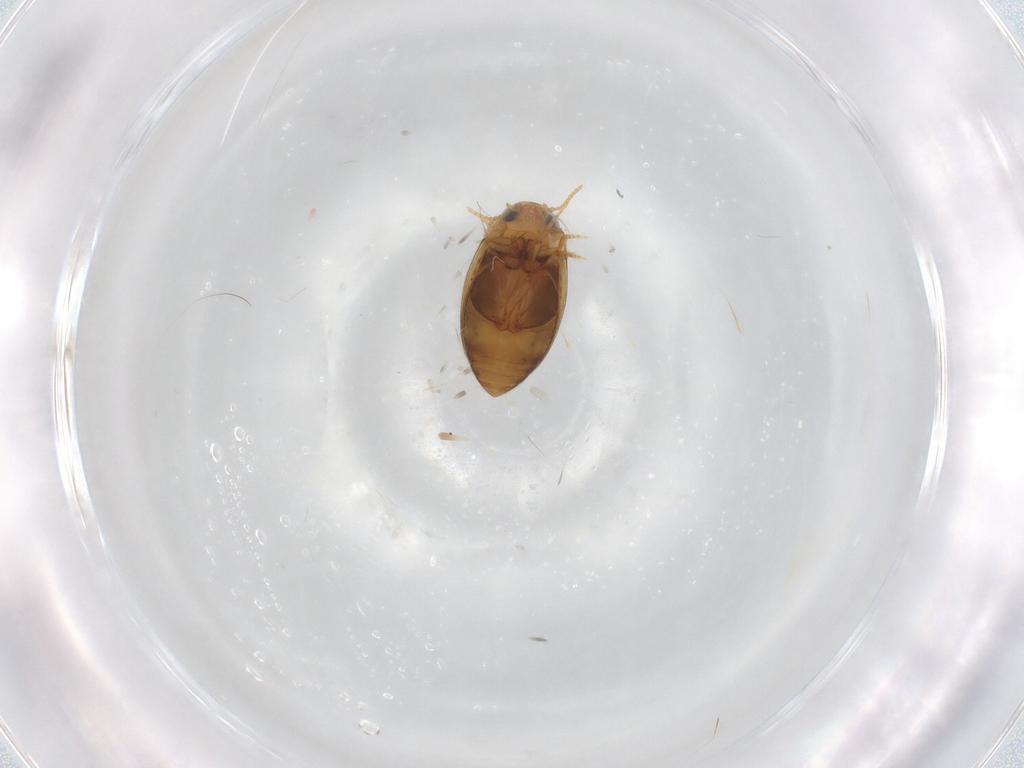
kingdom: Animalia
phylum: Arthropoda
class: Insecta
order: Coleoptera
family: Dytiscidae
